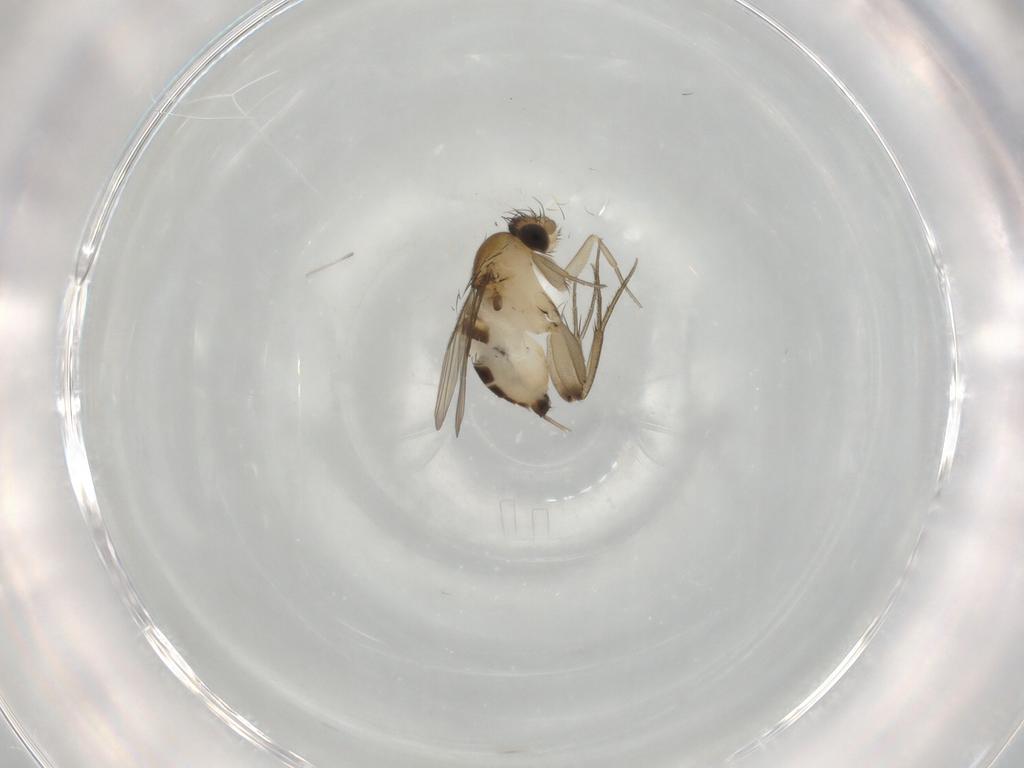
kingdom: Animalia
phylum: Arthropoda
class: Insecta
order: Diptera
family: Phoridae
